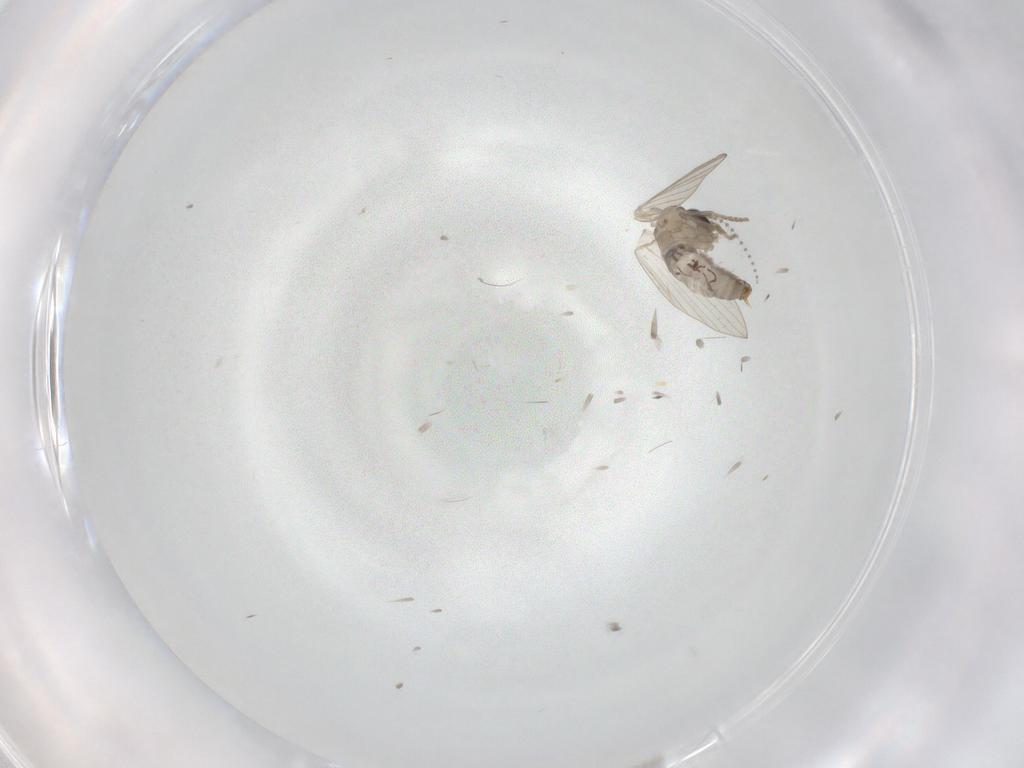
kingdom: Animalia
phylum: Arthropoda
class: Insecta
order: Diptera
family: Psychodidae
